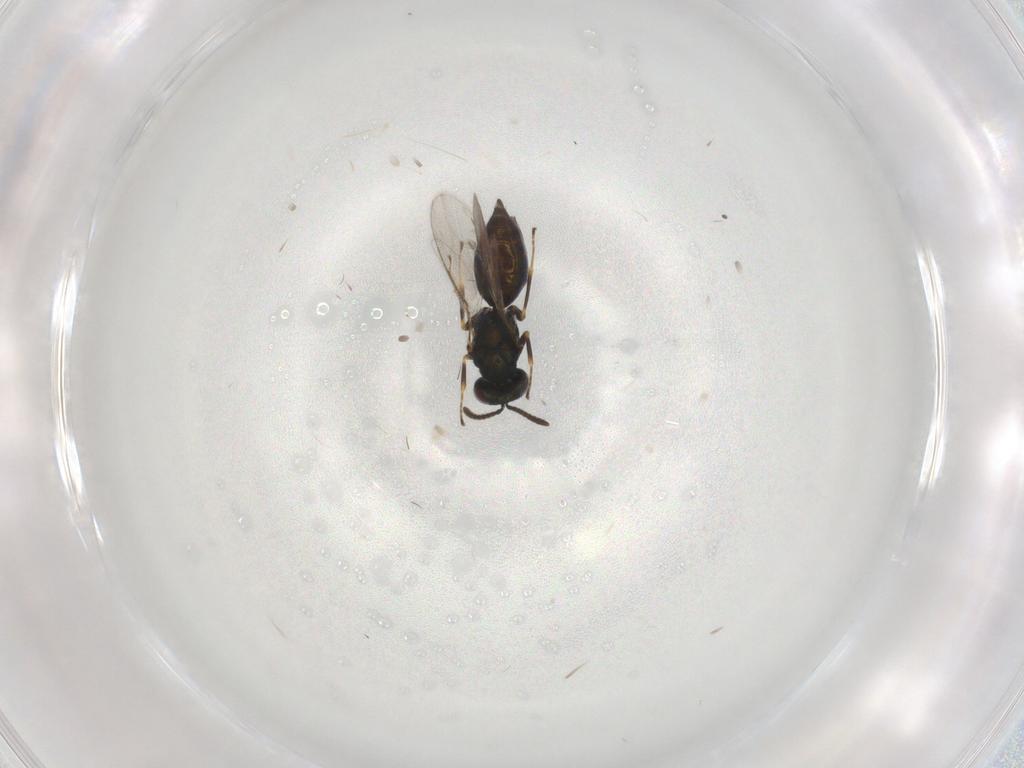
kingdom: Animalia
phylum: Arthropoda
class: Insecta
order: Hymenoptera
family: Pteromalidae
